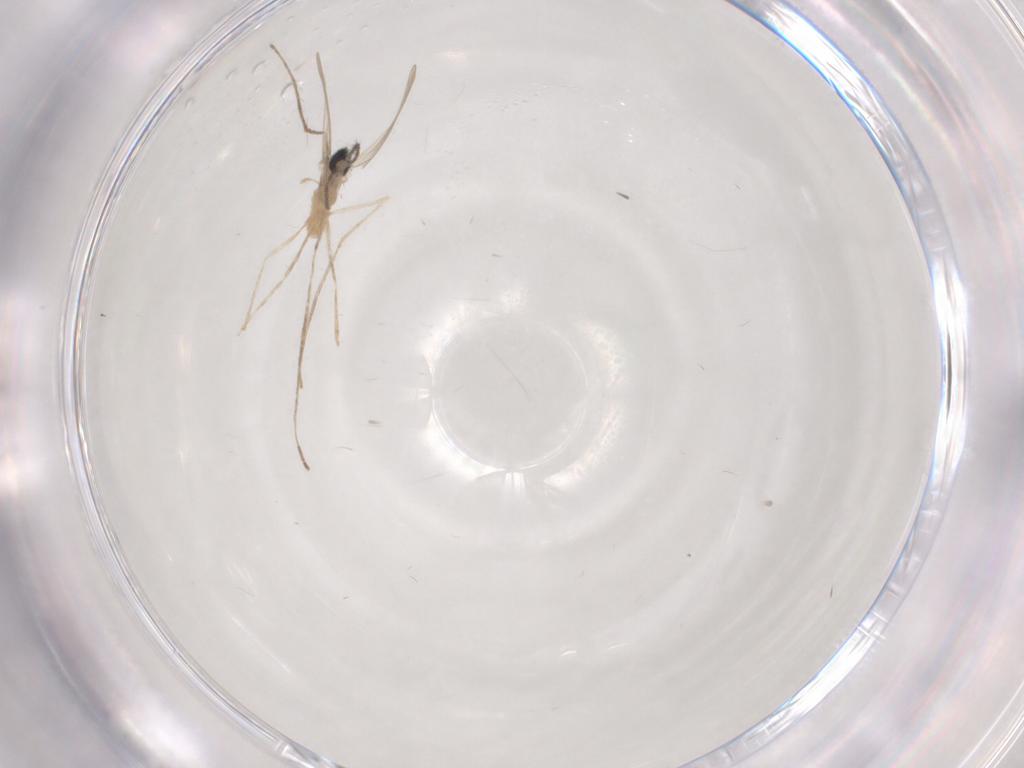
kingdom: Animalia
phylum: Arthropoda
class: Insecta
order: Diptera
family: Cecidomyiidae
